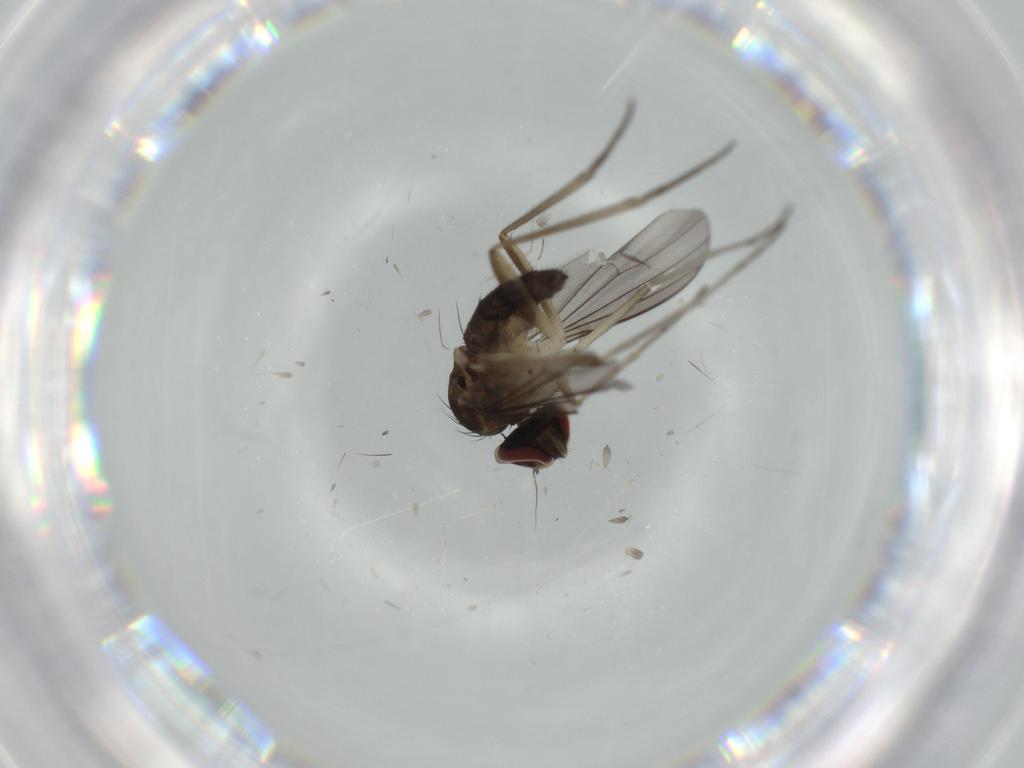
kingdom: Animalia
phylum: Arthropoda
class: Insecta
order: Diptera
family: Dolichopodidae
